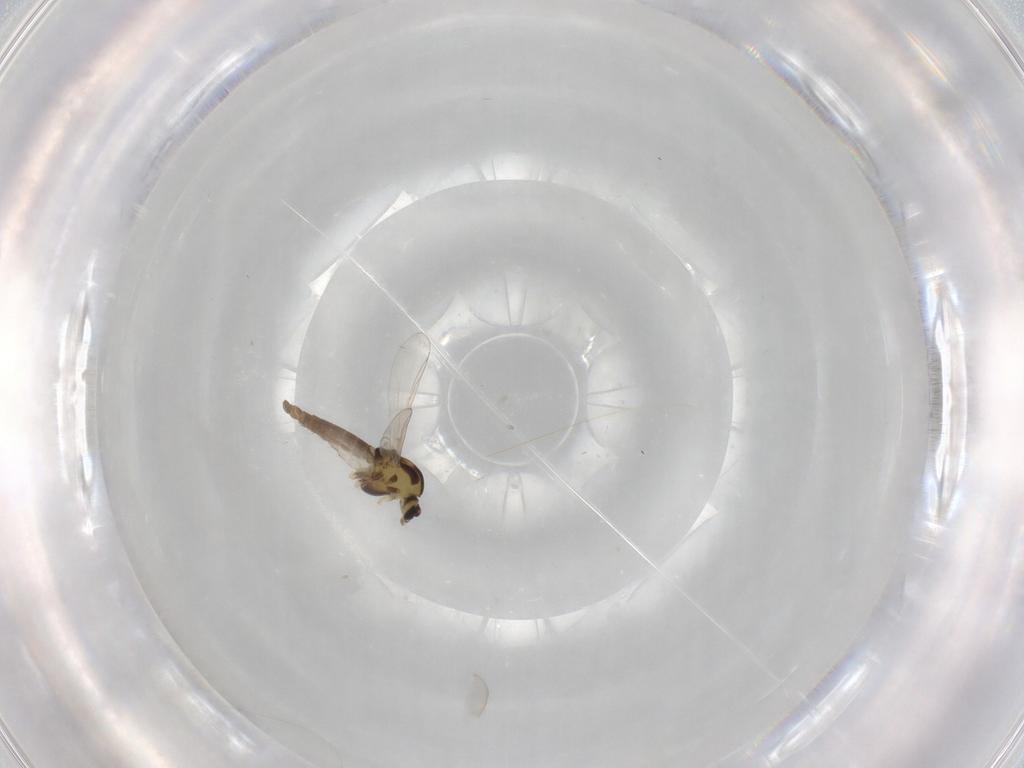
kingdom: Animalia
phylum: Arthropoda
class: Insecta
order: Diptera
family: Chironomidae
